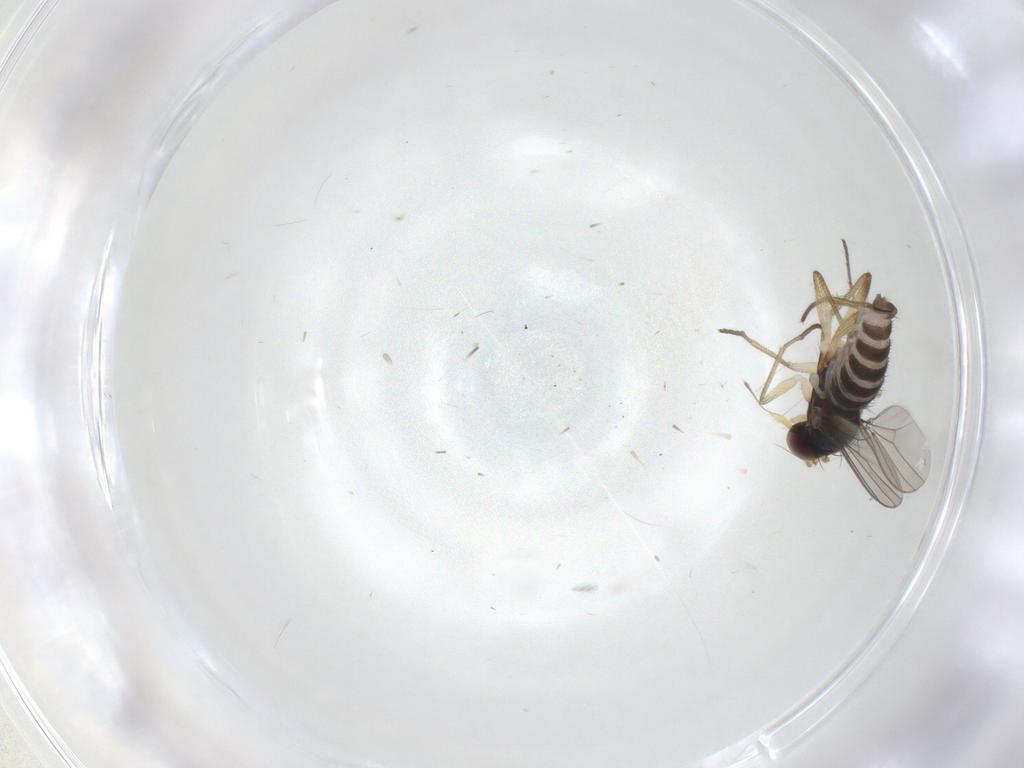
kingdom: Animalia
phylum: Arthropoda
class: Insecta
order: Diptera
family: Dolichopodidae
